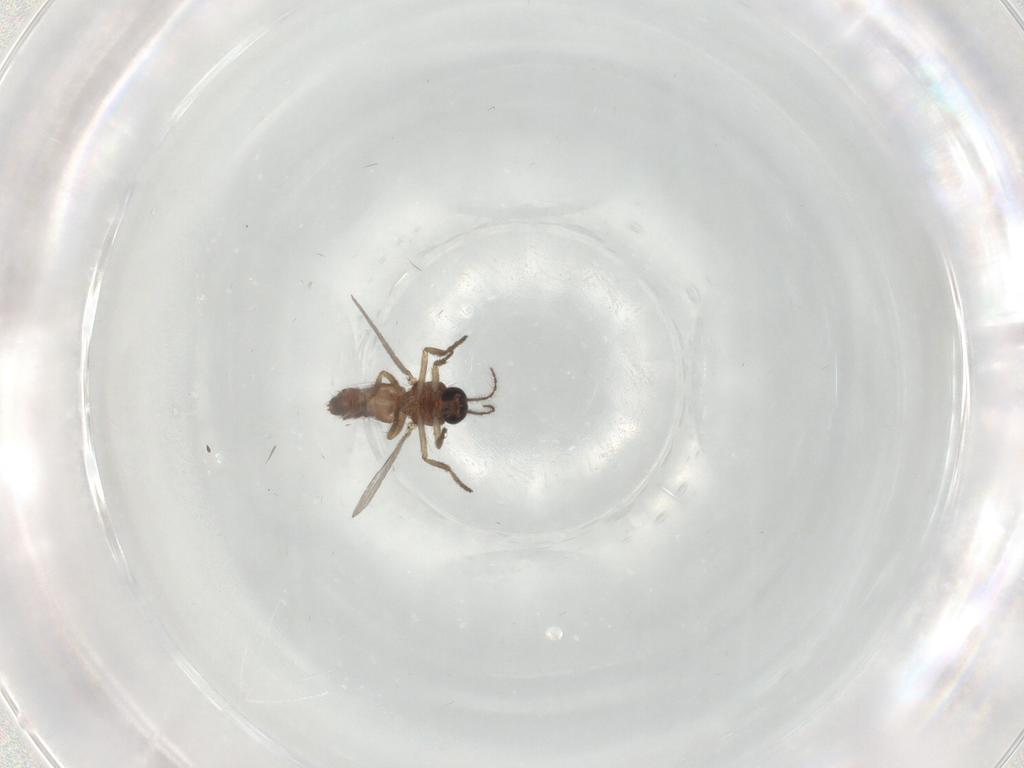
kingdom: Animalia
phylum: Arthropoda
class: Insecta
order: Diptera
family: Ceratopogonidae
